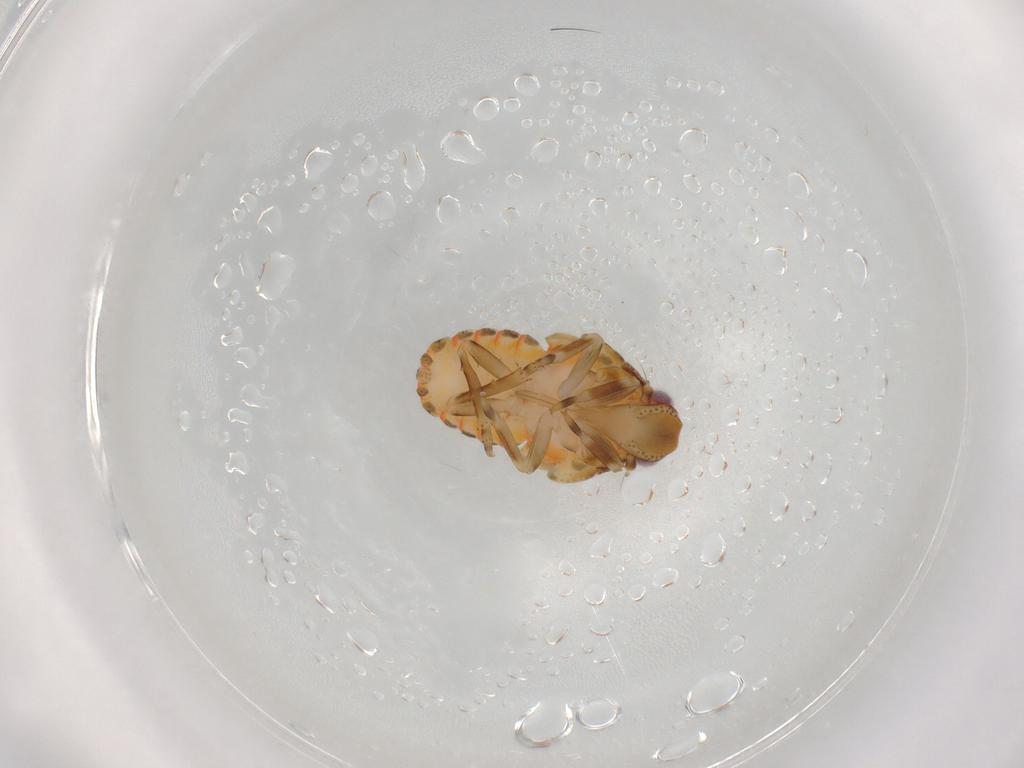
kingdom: Animalia
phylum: Arthropoda
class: Insecta
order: Hemiptera
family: Flatidae
